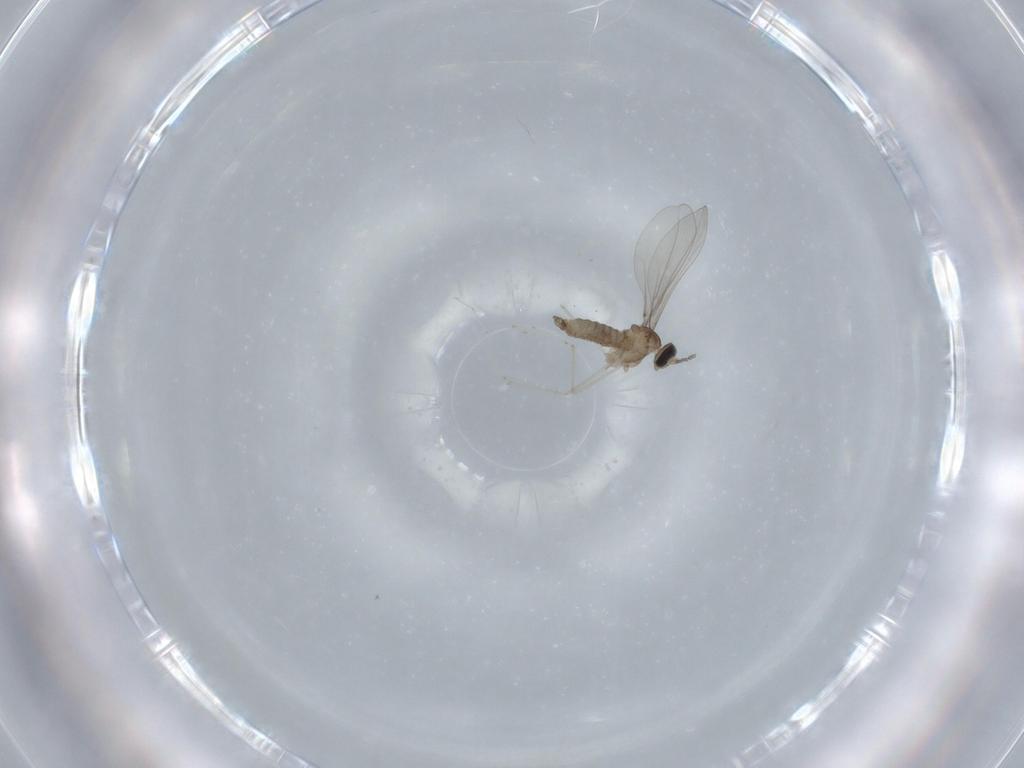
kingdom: Animalia
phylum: Arthropoda
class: Insecta
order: Diptera
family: Cecidomyiidae
